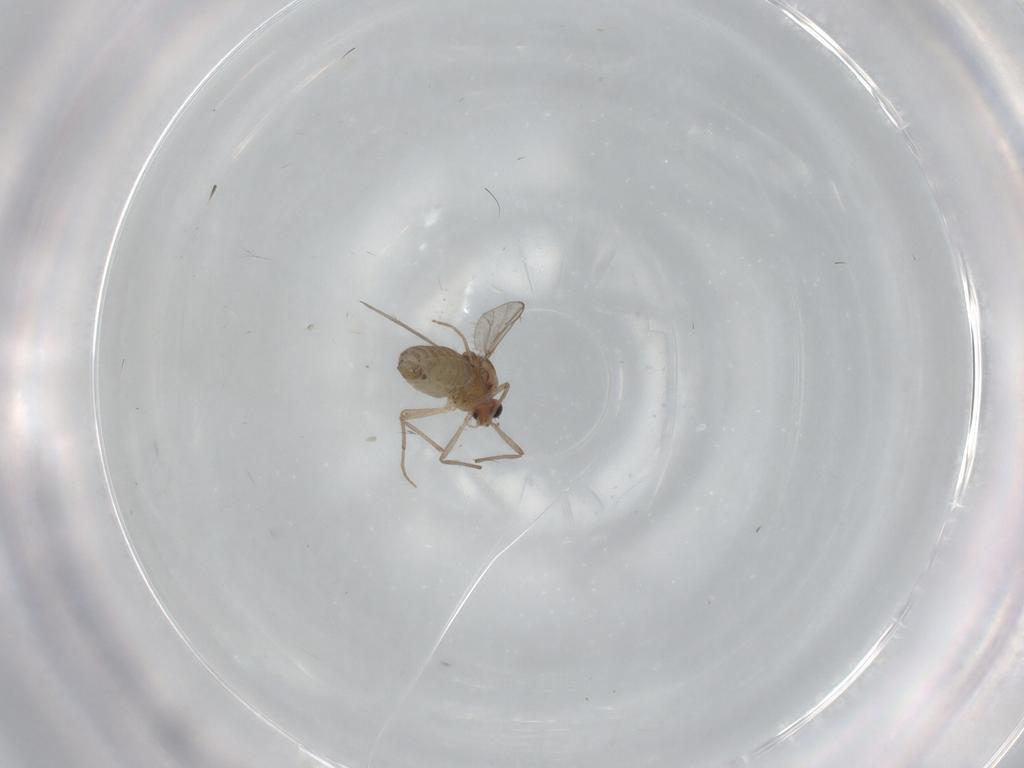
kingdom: Animalia
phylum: Arthropoda
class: Insecta
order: Diptera
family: Chironomidae
